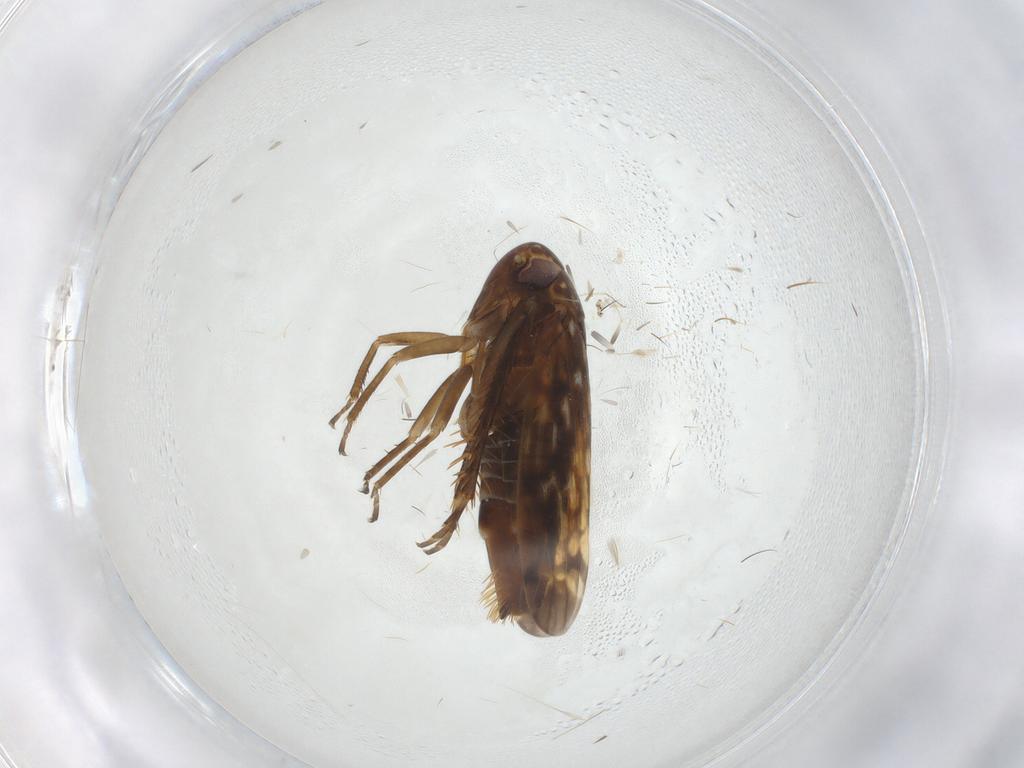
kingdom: Animalia
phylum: Arthropoda
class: Insecta
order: Hemiptera
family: Cicadellidae
